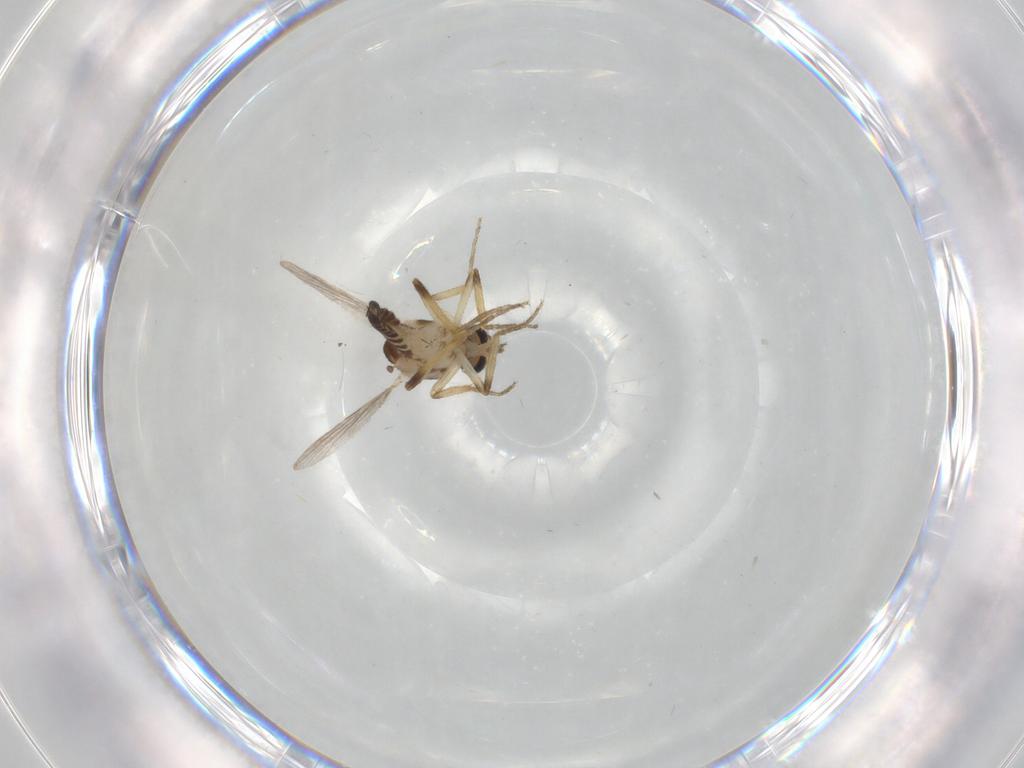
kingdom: Animalia
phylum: Arthropoda
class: Insecta
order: Diptera
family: Ceratopogonidae
